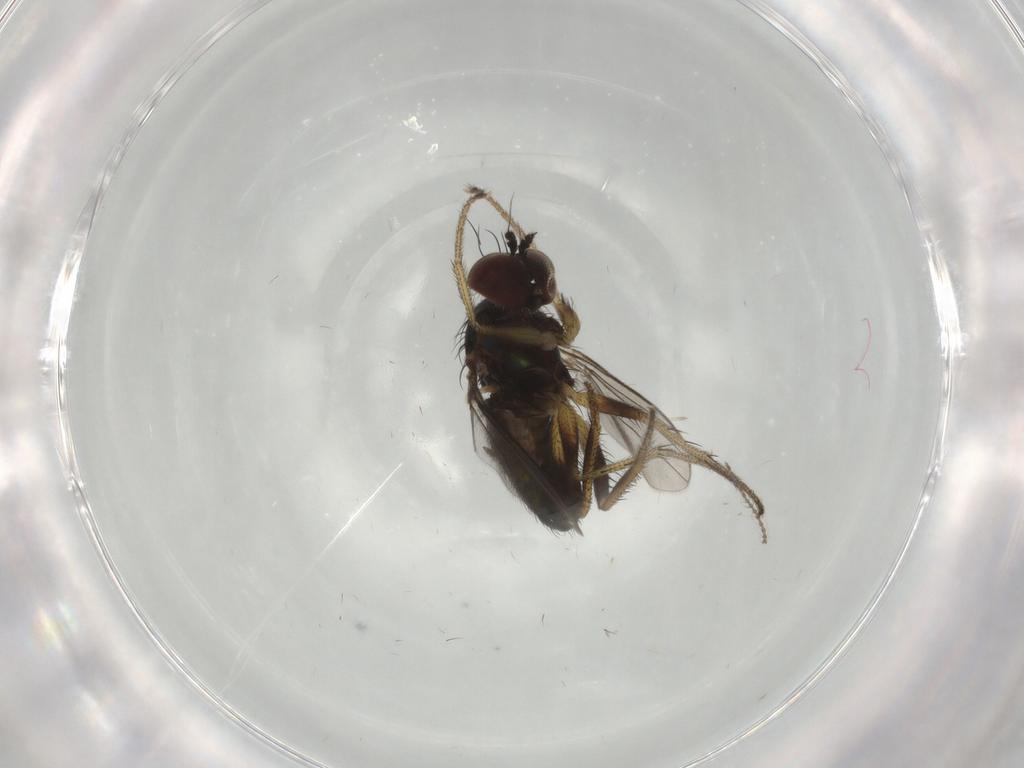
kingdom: Animalia
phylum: Arthropoda
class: Insecta
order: Diptera
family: Dolichopodidae
